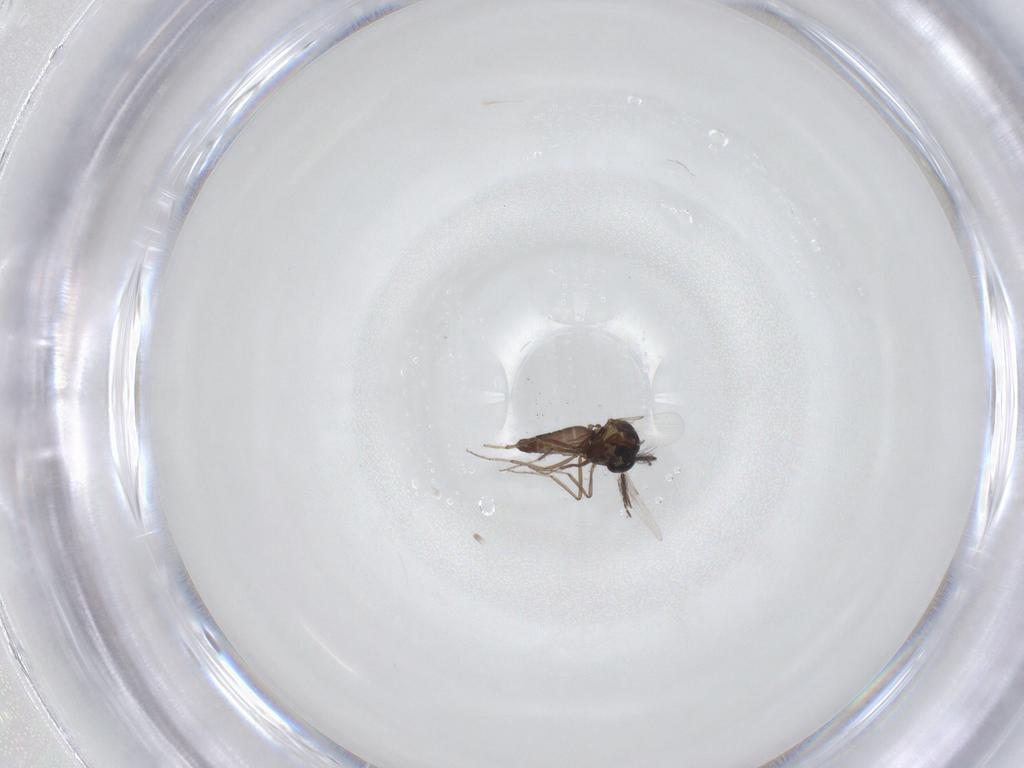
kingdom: Animalia
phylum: Arthropoda
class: Insecta
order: Diptera
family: Ceratopogonidae
